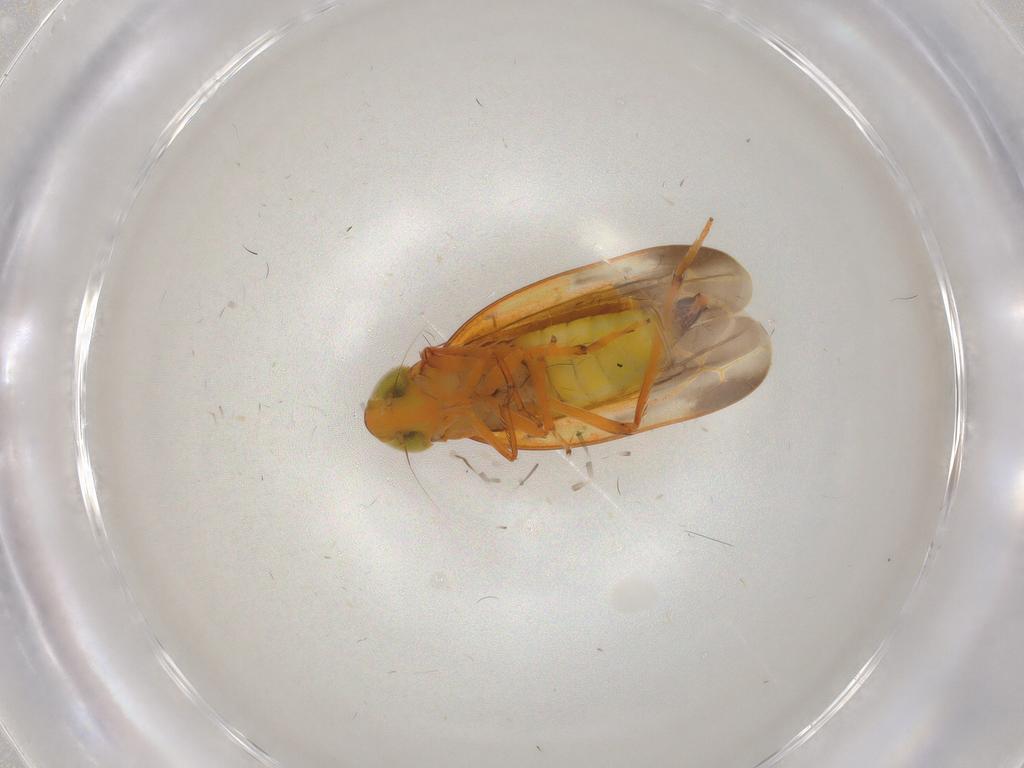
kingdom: Animalia
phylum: Arthropoda
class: Insecta
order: Hemiptera
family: Cicadellidae
